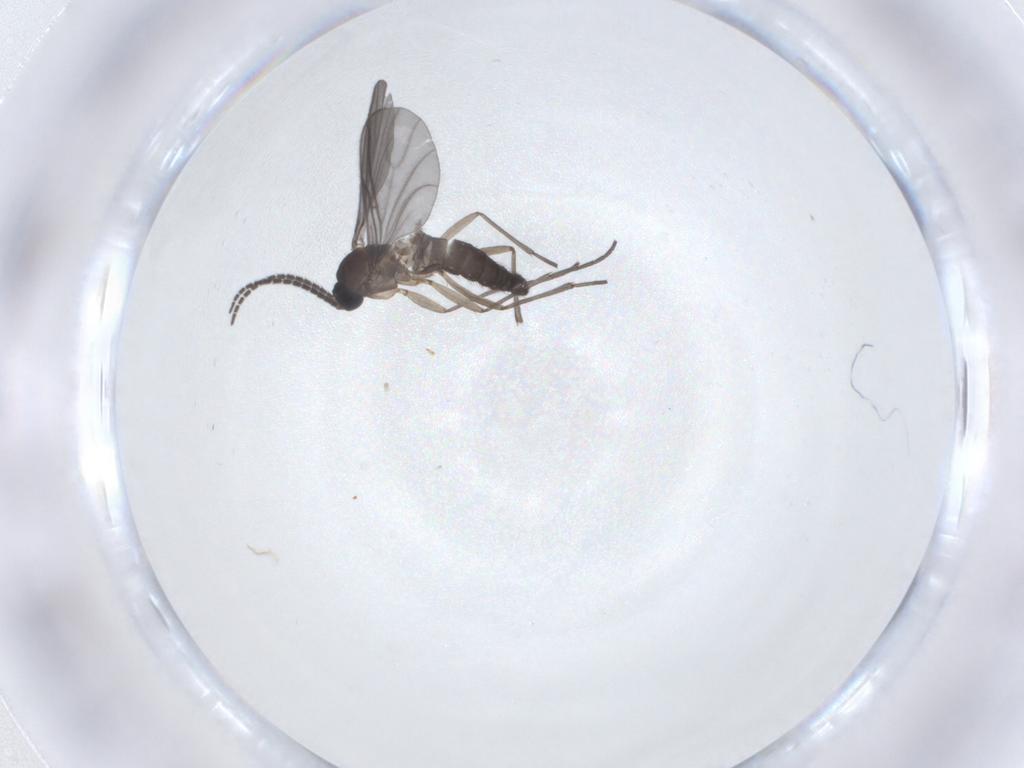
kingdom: Animalia
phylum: Arthropoda
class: Insecta
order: Diptera
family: Sciaridae
